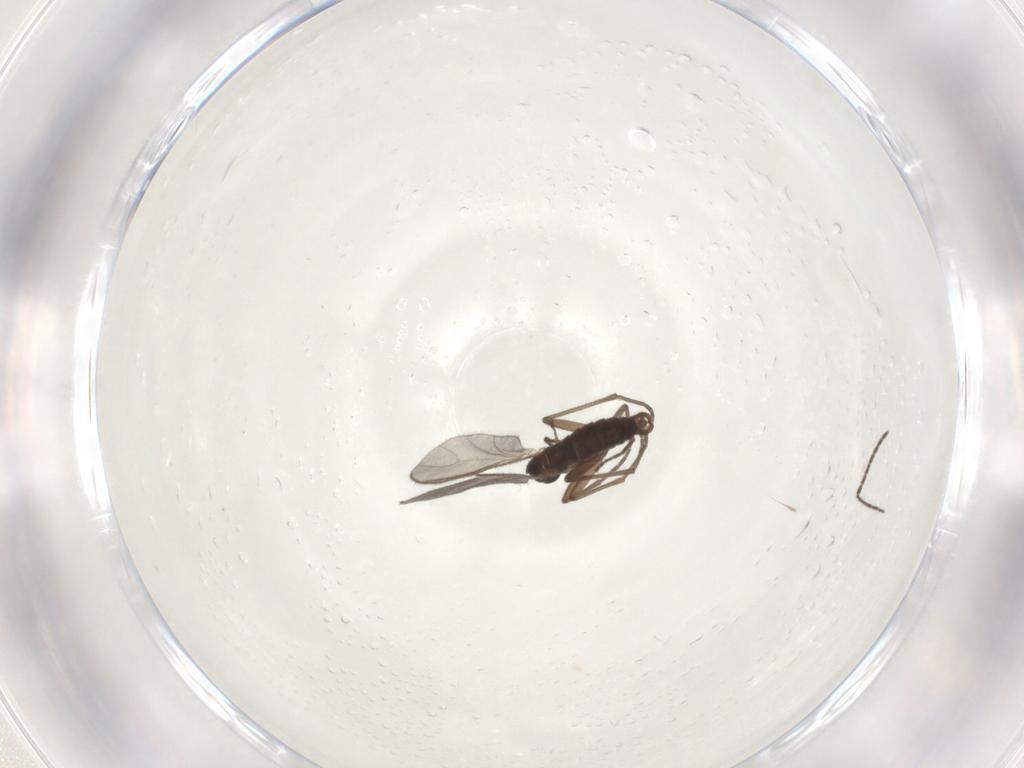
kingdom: Animalia
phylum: Arthropoda
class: Insecta
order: Diptera
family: Sciaridae
